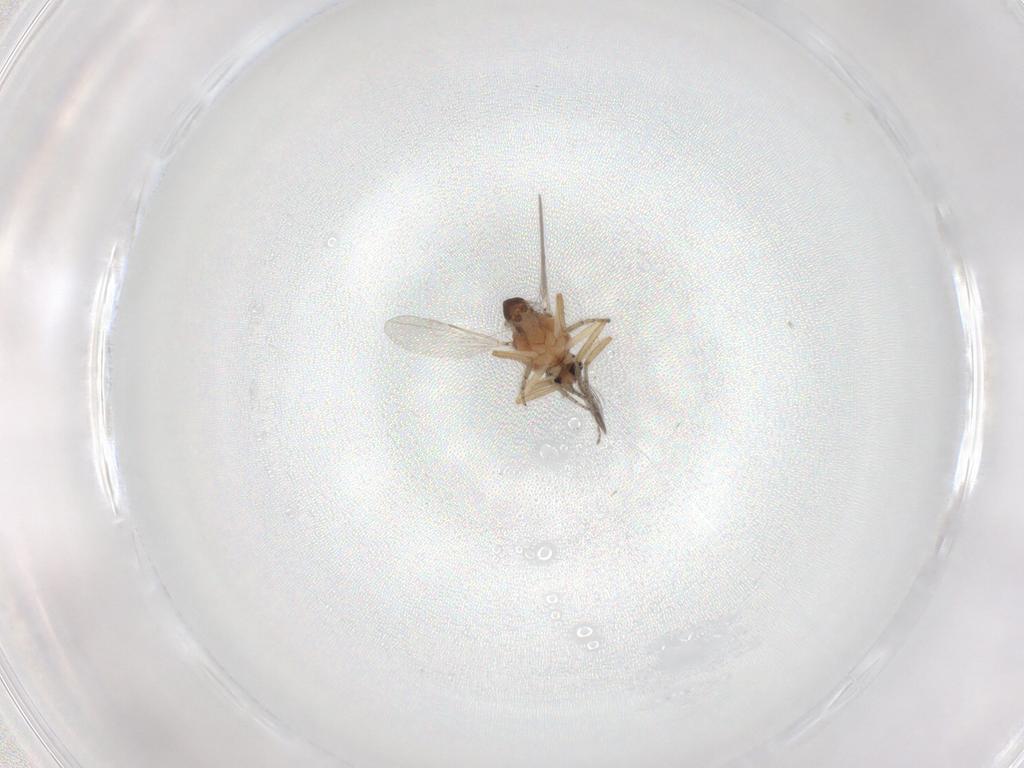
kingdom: Animalia
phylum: Arthropoda
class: Insecta
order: Diptera
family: Ceratopogonidae
